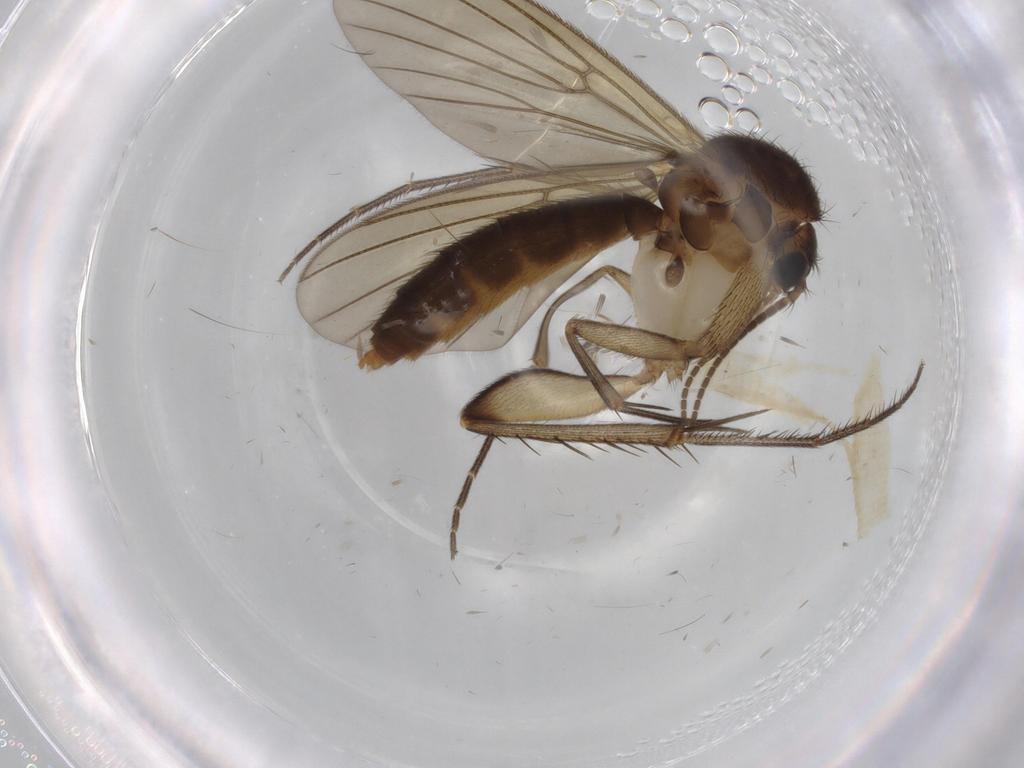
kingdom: Animalia
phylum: Arthropoda
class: Insecta
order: Diptera
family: Mycetophilidae
